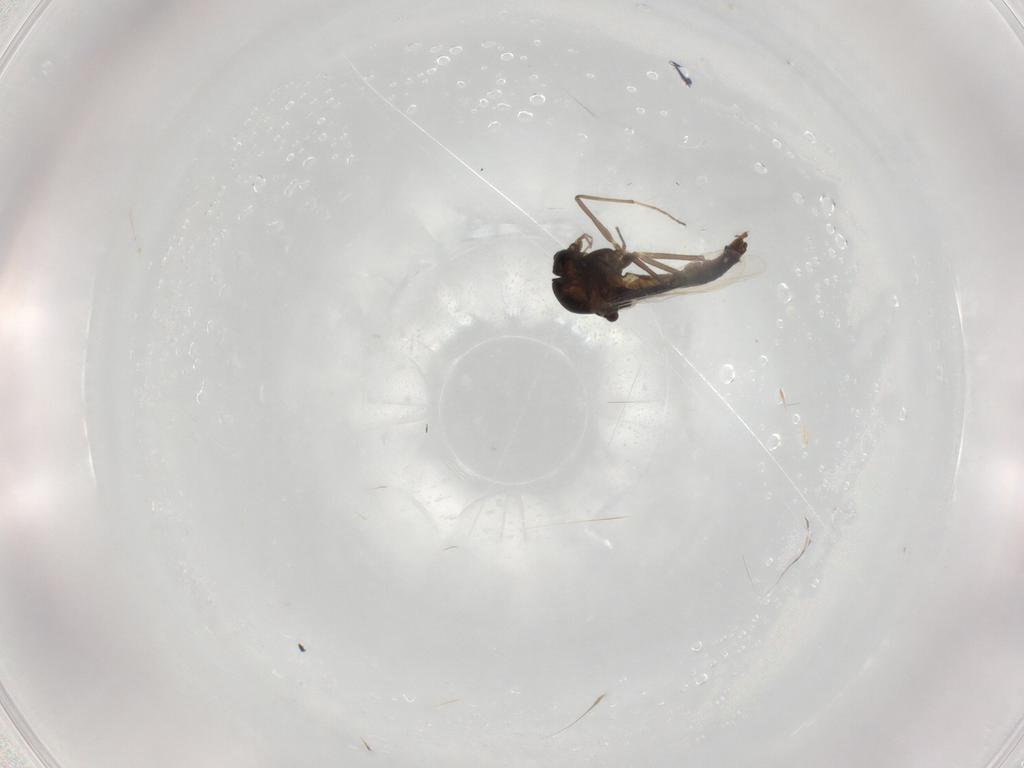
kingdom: Animalia
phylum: Arthropoda
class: Insecta
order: Diptera
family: Chironomidae
